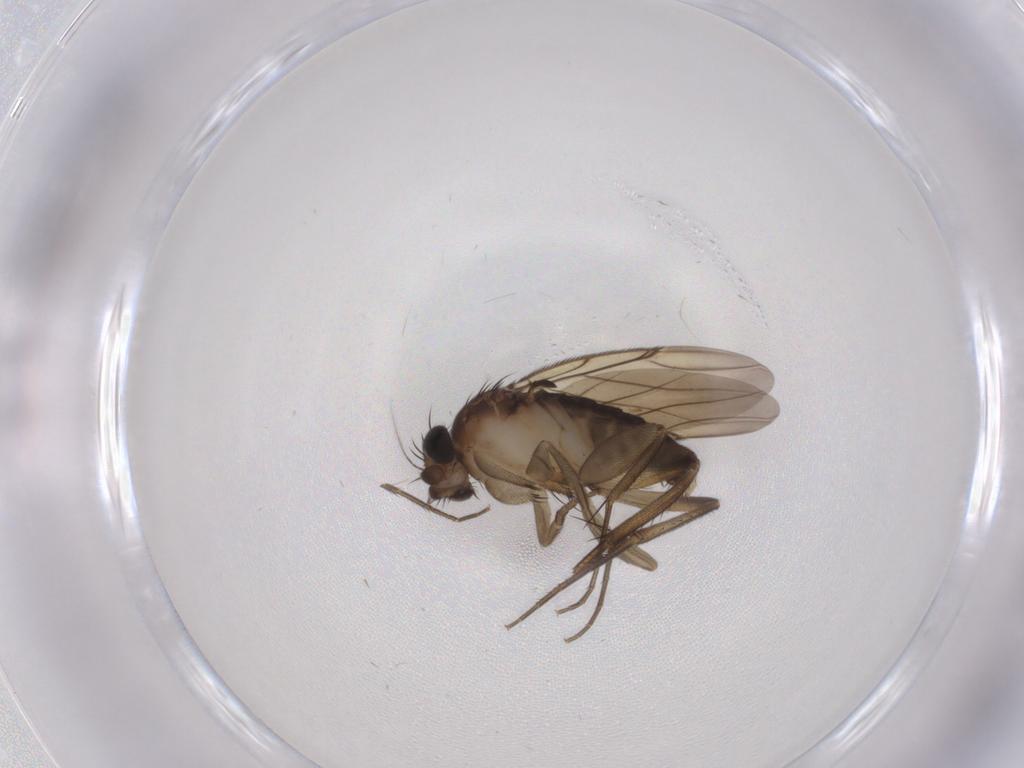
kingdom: Animalia
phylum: Arthropoda
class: Insecta
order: Diptera
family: Phoridae
